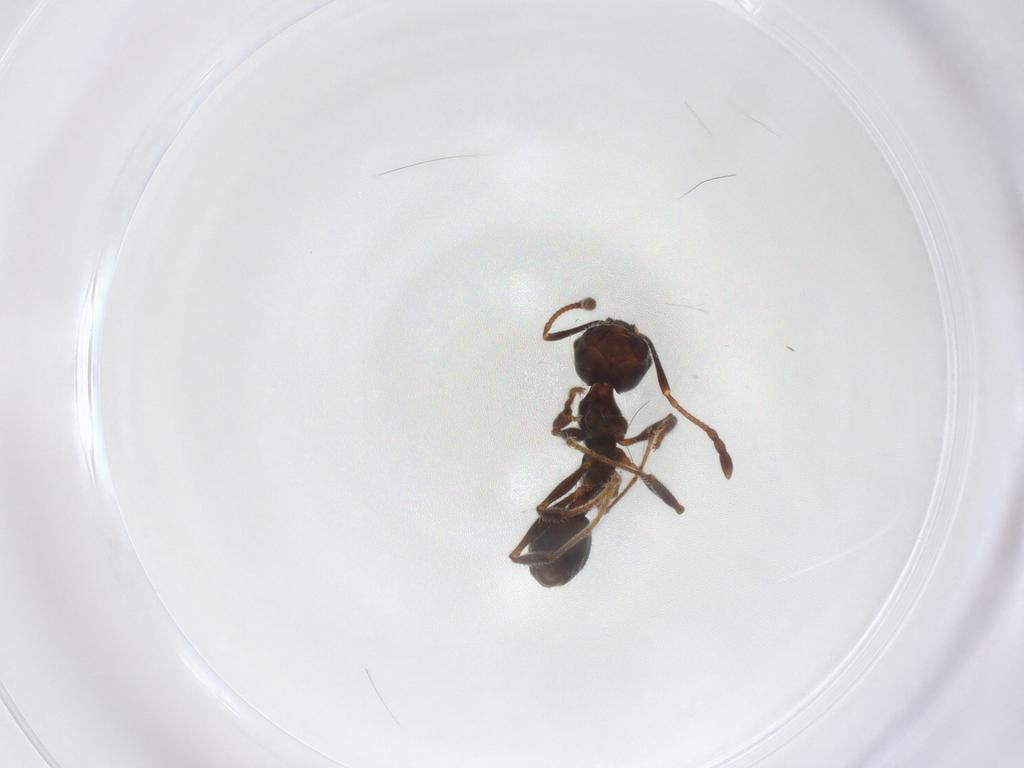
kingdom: Animalia
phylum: Arthropoda
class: Insecta
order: Hymenoptera
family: Formicidae
